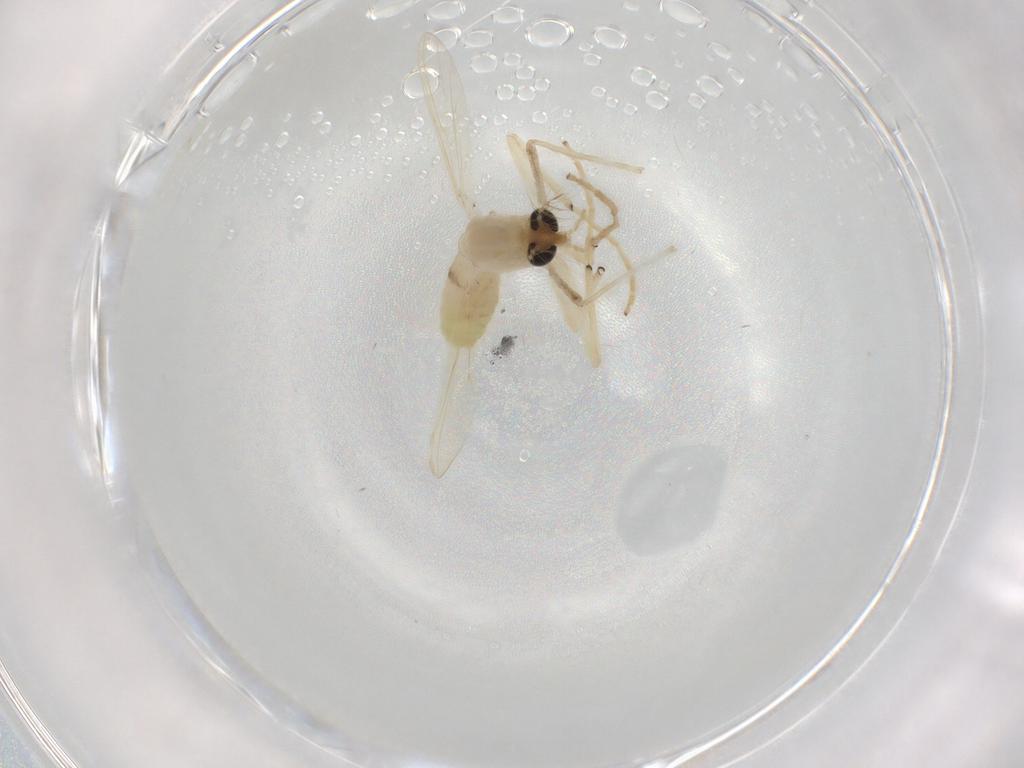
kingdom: Animalia
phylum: Arthropoda
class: Insecta
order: Diptera
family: Chironomidae
